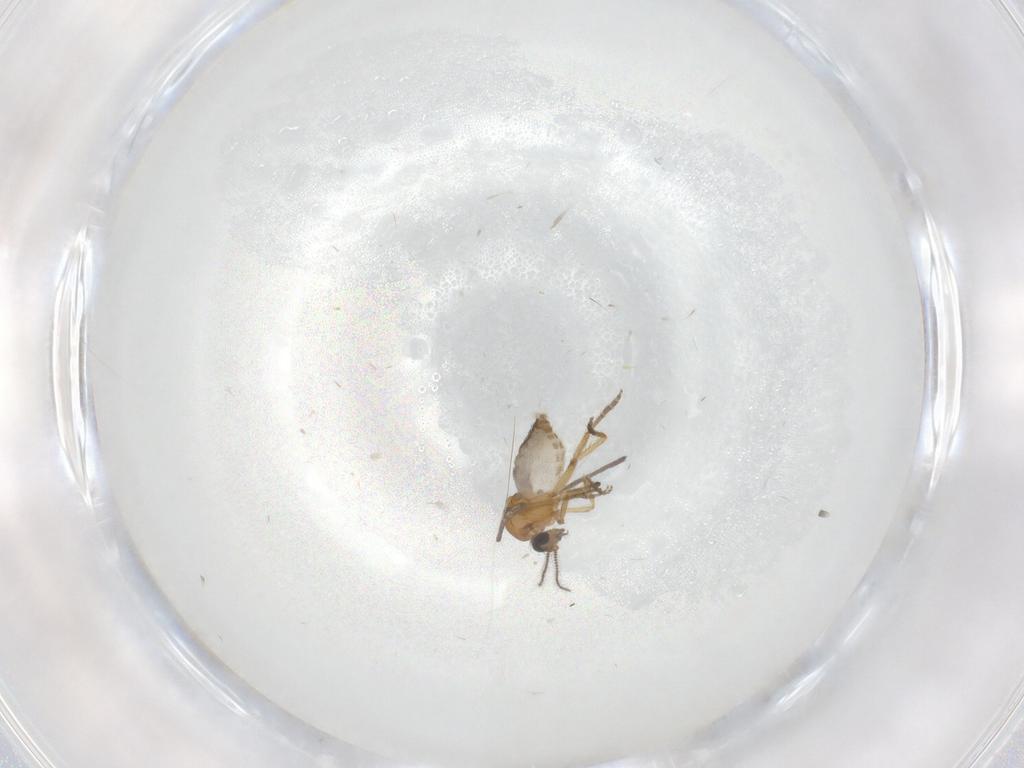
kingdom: Animalia
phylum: Arthropoda
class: Insecta
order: Diptera
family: Ceratopogonidae
